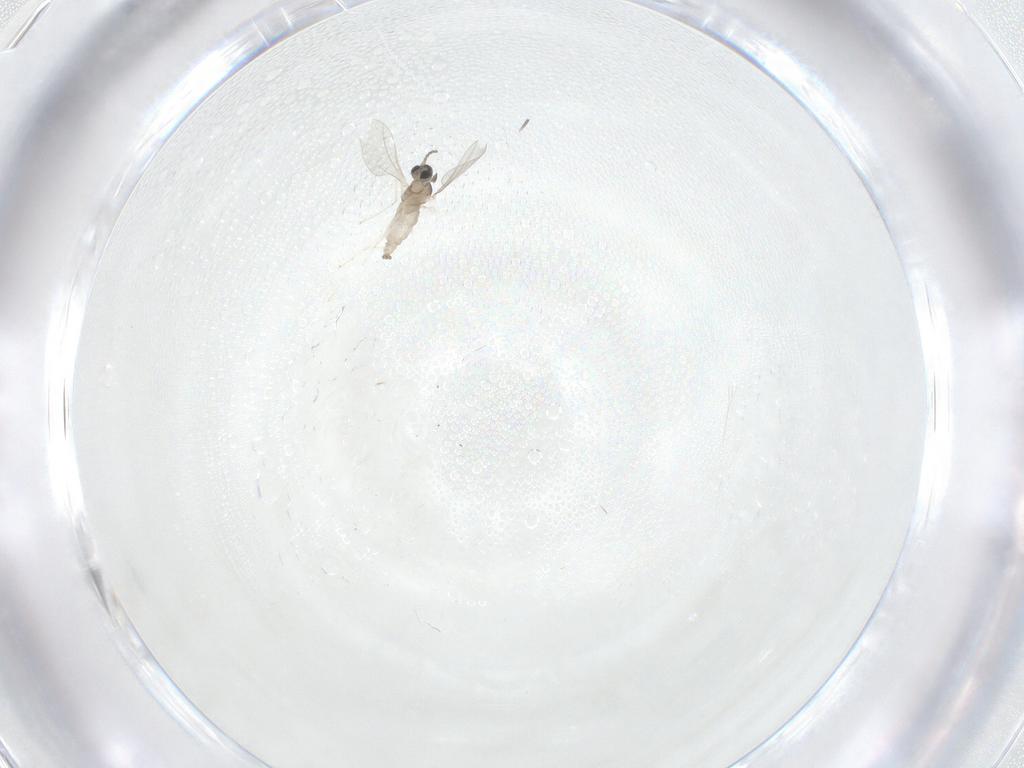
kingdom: Animalia
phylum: Arthropoda
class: Insecta
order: Diptera
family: Cecidomyiidae
